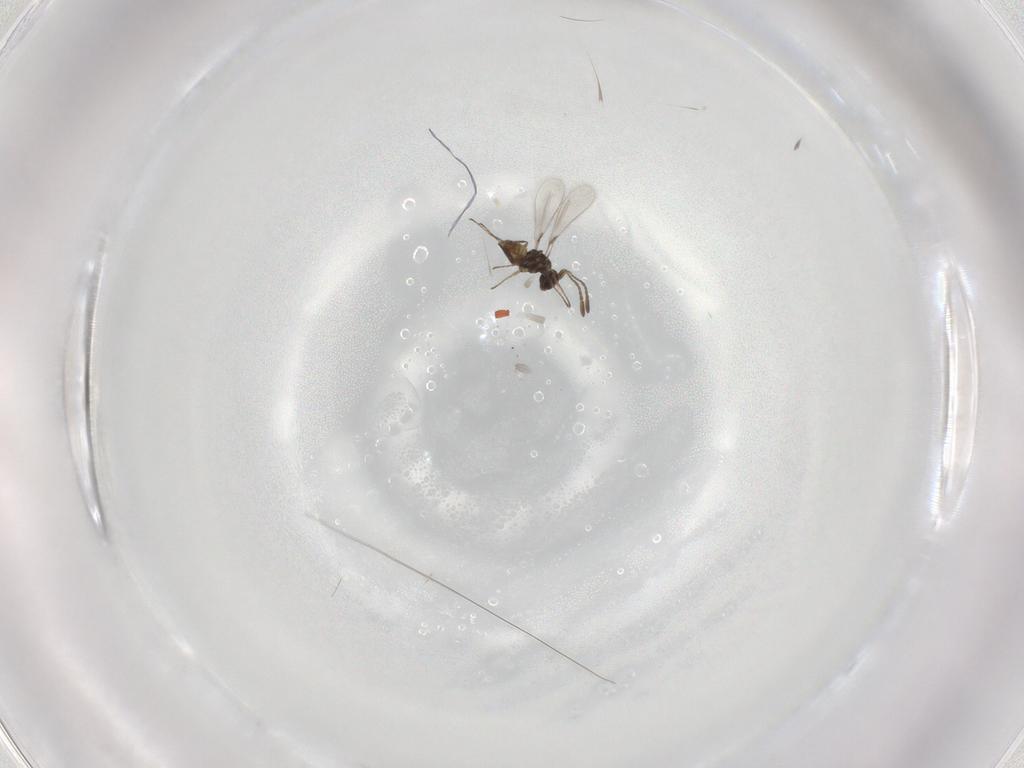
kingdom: Animalia
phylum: Arthropoda
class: Insecta
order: Hymenoptera
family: Mymaridae
